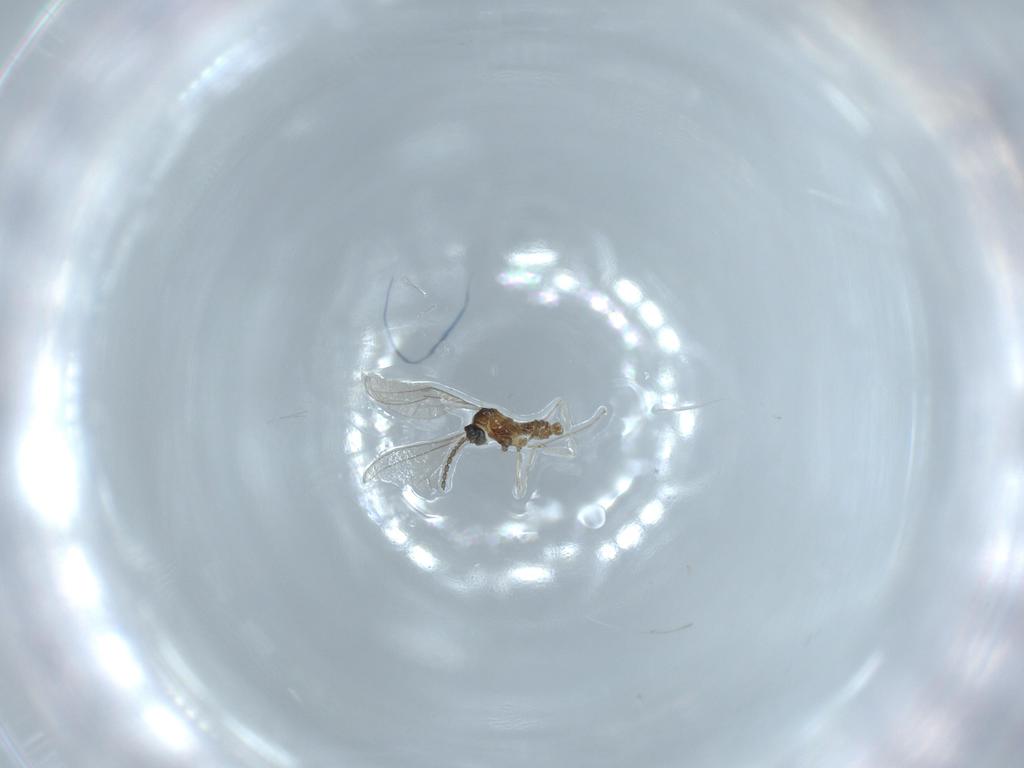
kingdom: Animalia
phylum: Arthropoda
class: Insecta
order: Diptera
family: Cecidomyiidae
